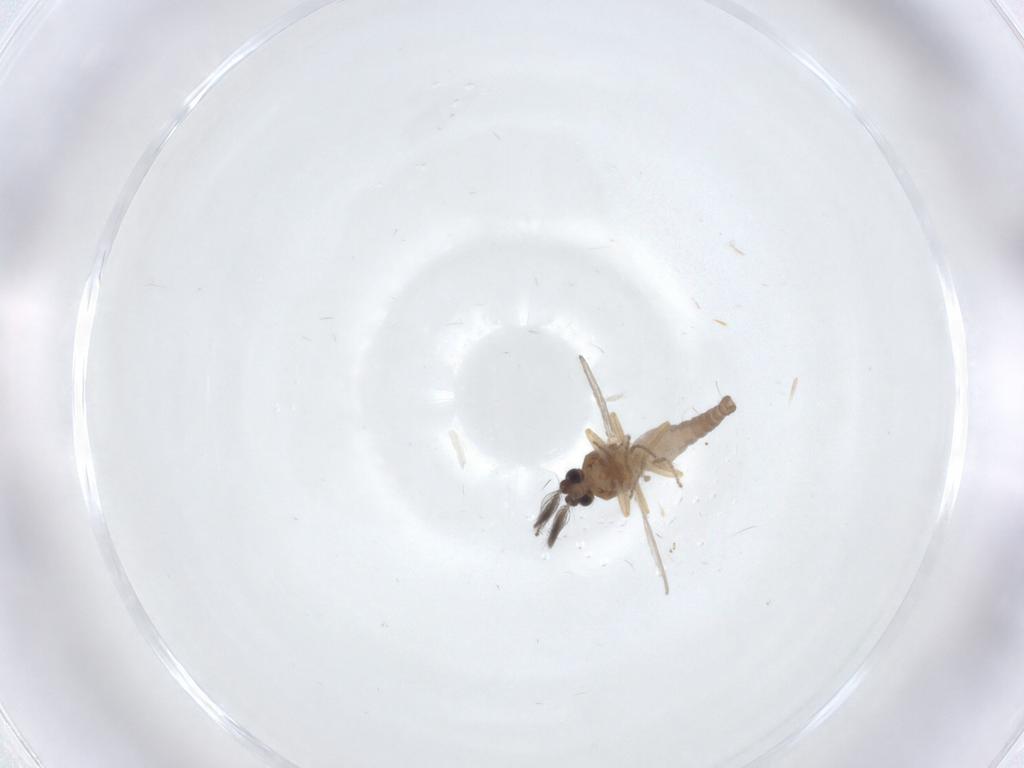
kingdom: Animalia
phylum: Arthropoda
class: Insecta
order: Diptera
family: Ceratopogonidae
